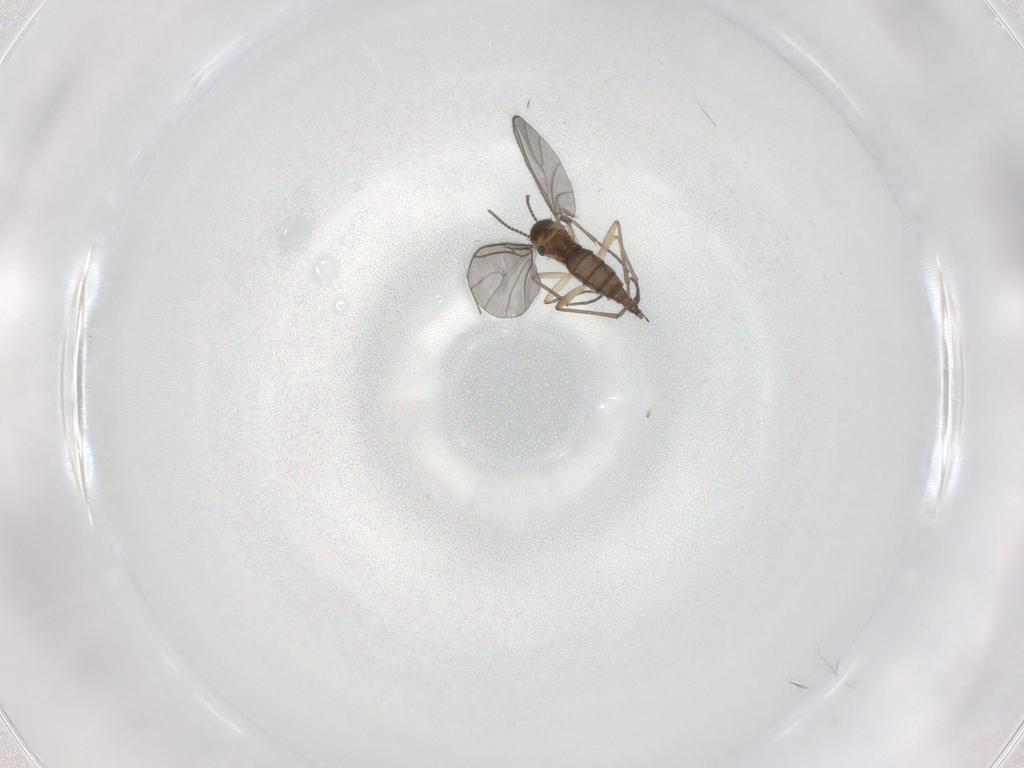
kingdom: Animalia
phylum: Arthropoda
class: Insecta
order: Diptera
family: Sciaridae
